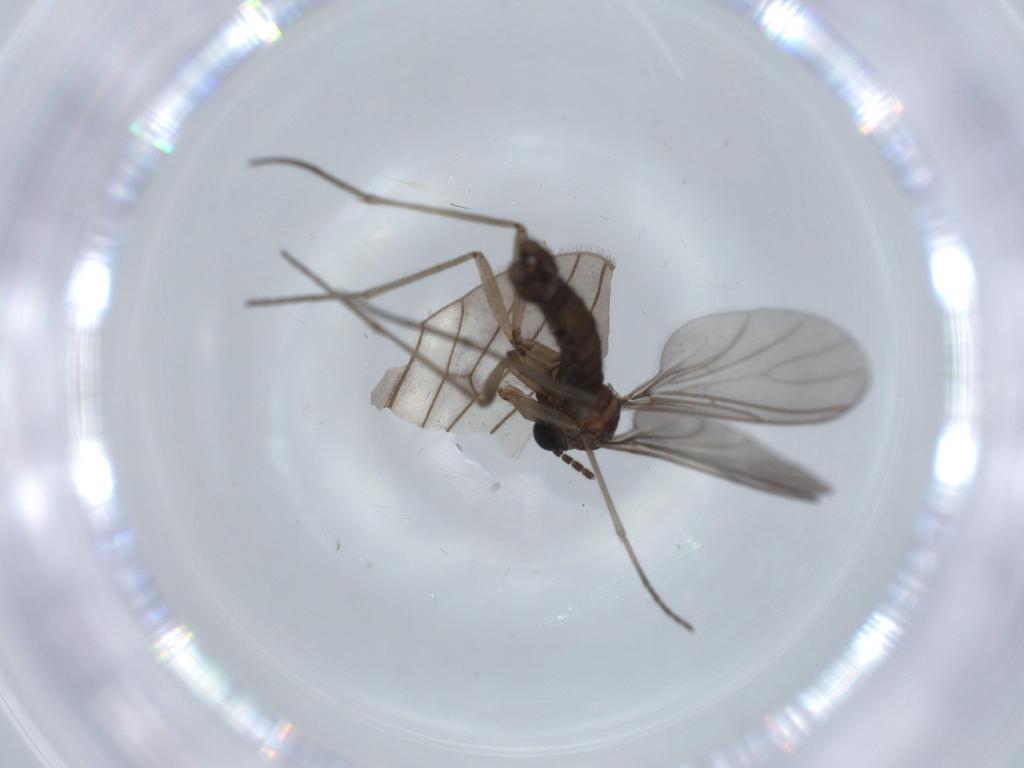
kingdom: Animalia
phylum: Arthropoda
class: Insecta
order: Diptera
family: Sciaridae
